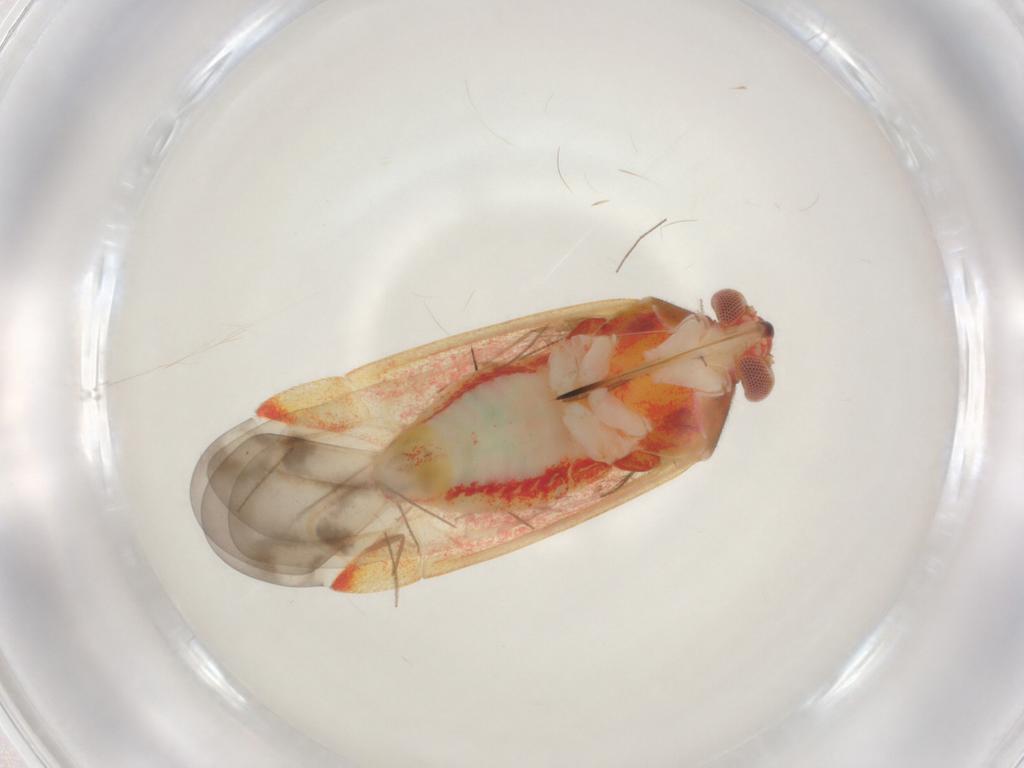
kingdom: Animalia
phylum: Arthropoda
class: Insecta
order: Hemiptera
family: Miridae
